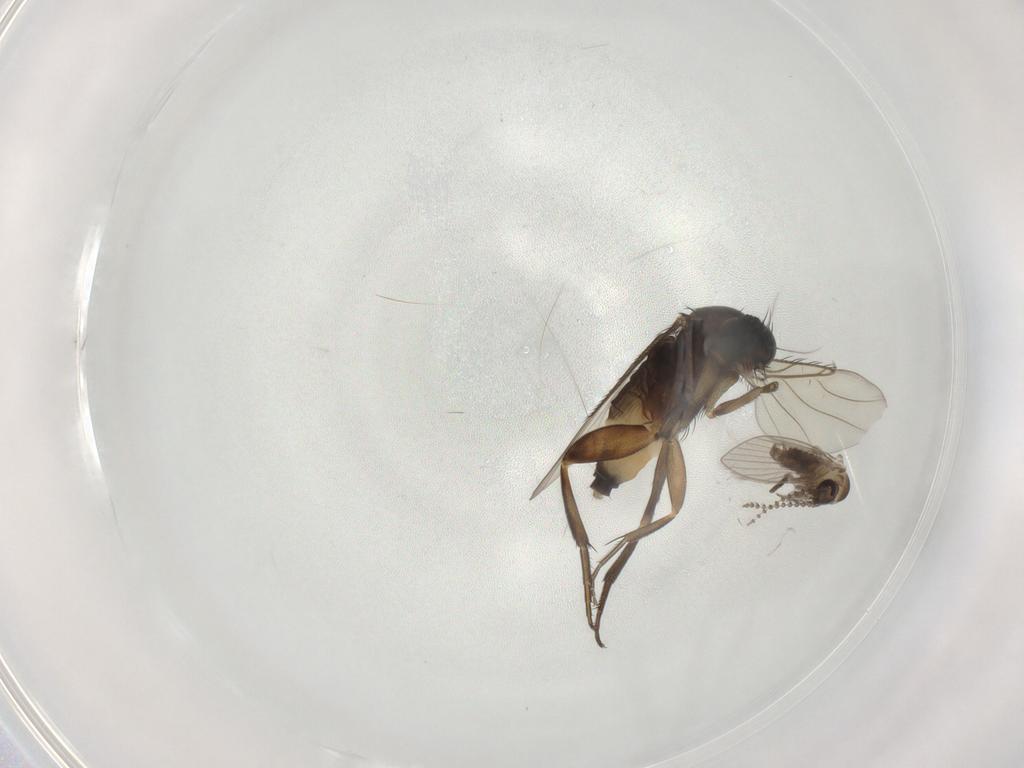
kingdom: Animalia
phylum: Arthropoda
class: Insecta
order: Diptera
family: Phoridae
